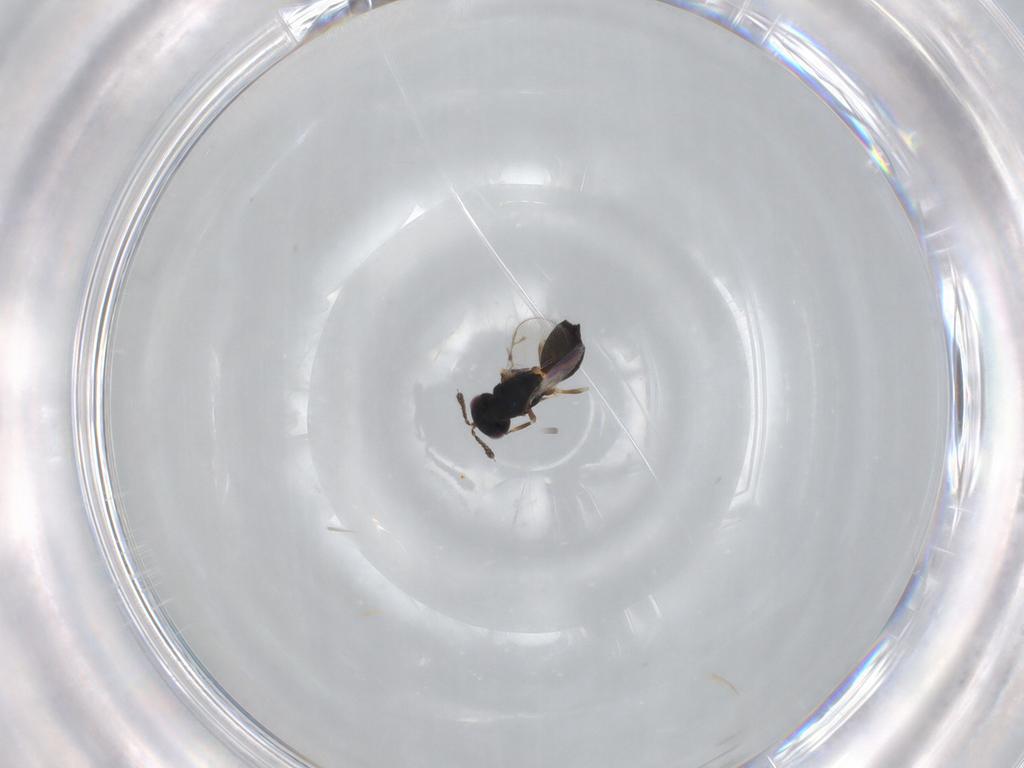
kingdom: Animalia
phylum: Arthropoda
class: Insecta
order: Hymenoptera
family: Pteromalidae
